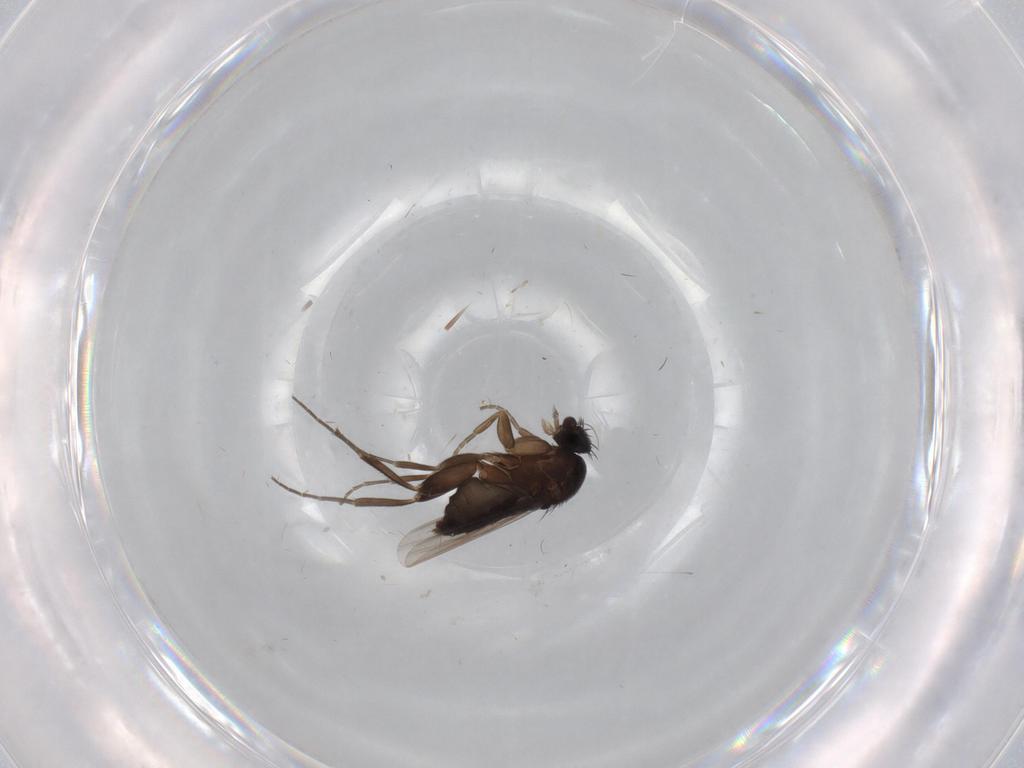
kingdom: Animalia
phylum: Arthropoda
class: Insecta
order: Diptera
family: Phoridae
